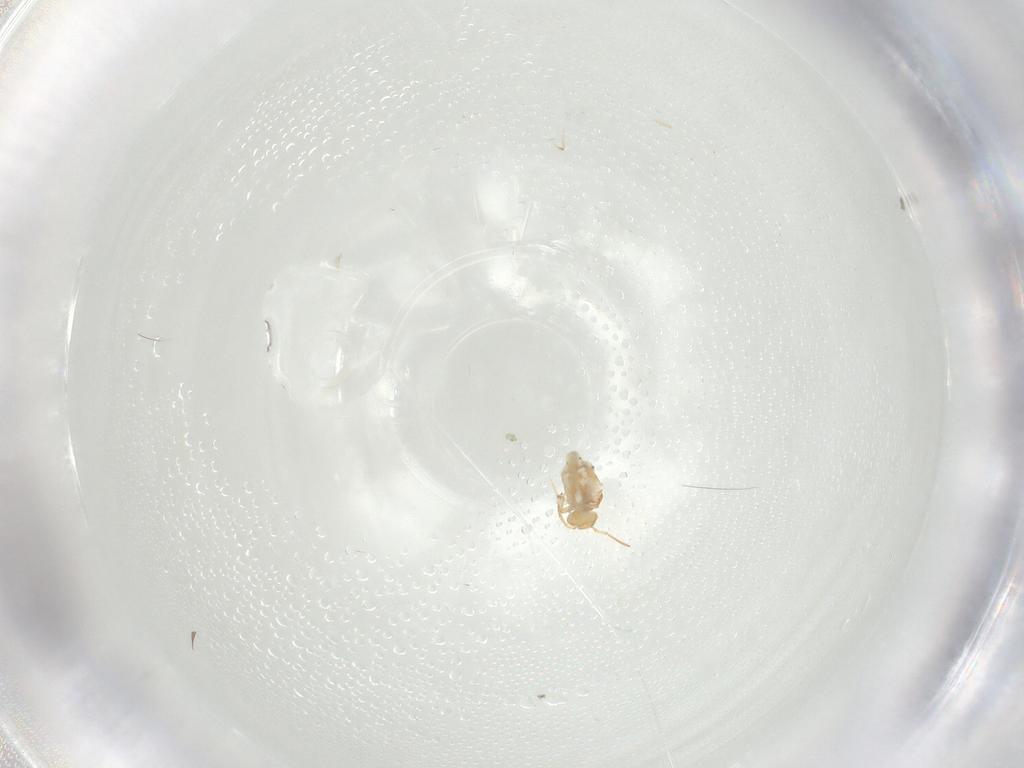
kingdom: Animalia
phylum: Arthropoda
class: Collembola
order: Symphypleona
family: Bourletiellidae
